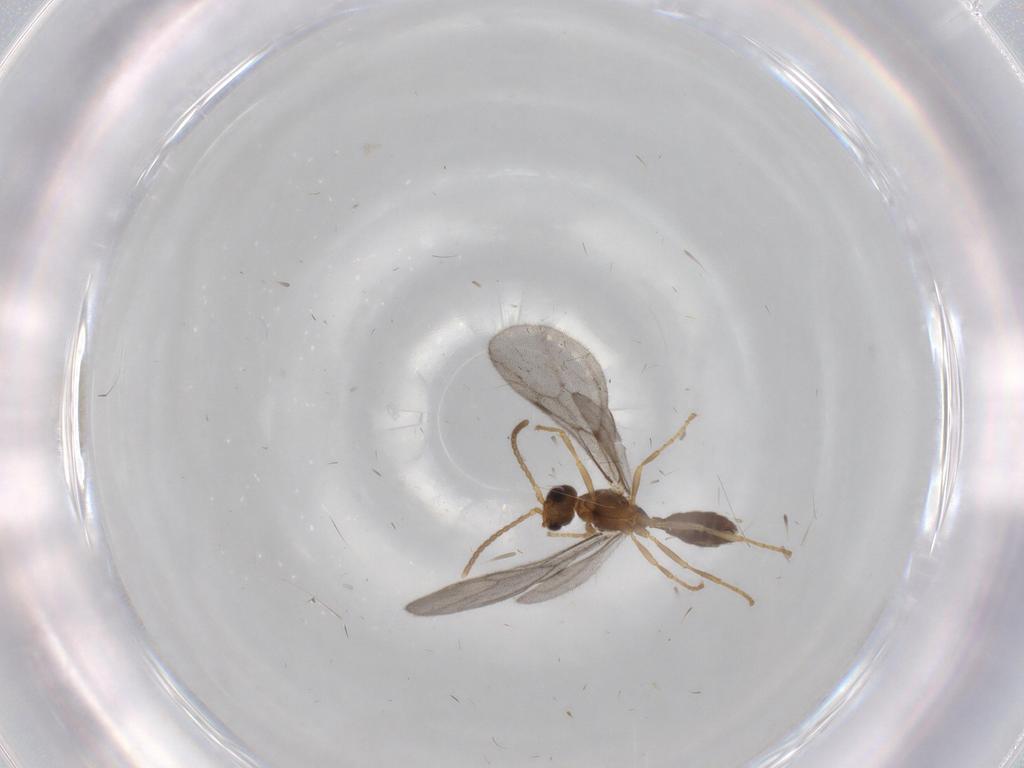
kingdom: Animalia
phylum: Arthropoda
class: Insecta
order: Hymenoptera
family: Formicidae
